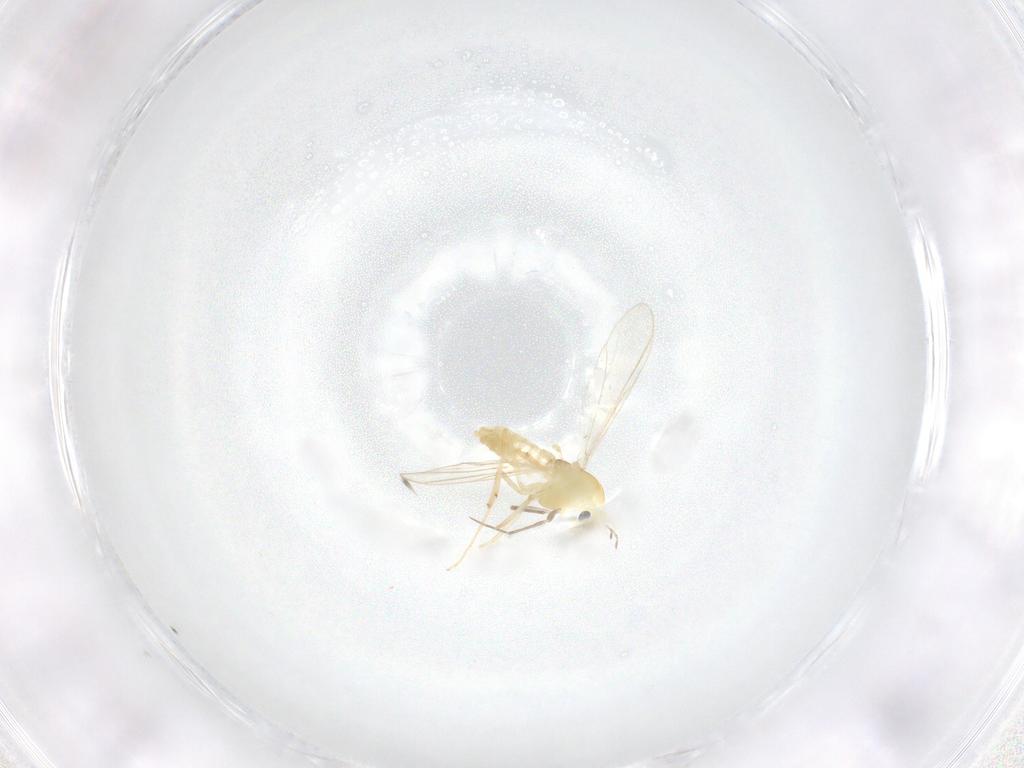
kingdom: Animalia
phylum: Arthropoda
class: Insecta
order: Diptera
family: Chironomidae
